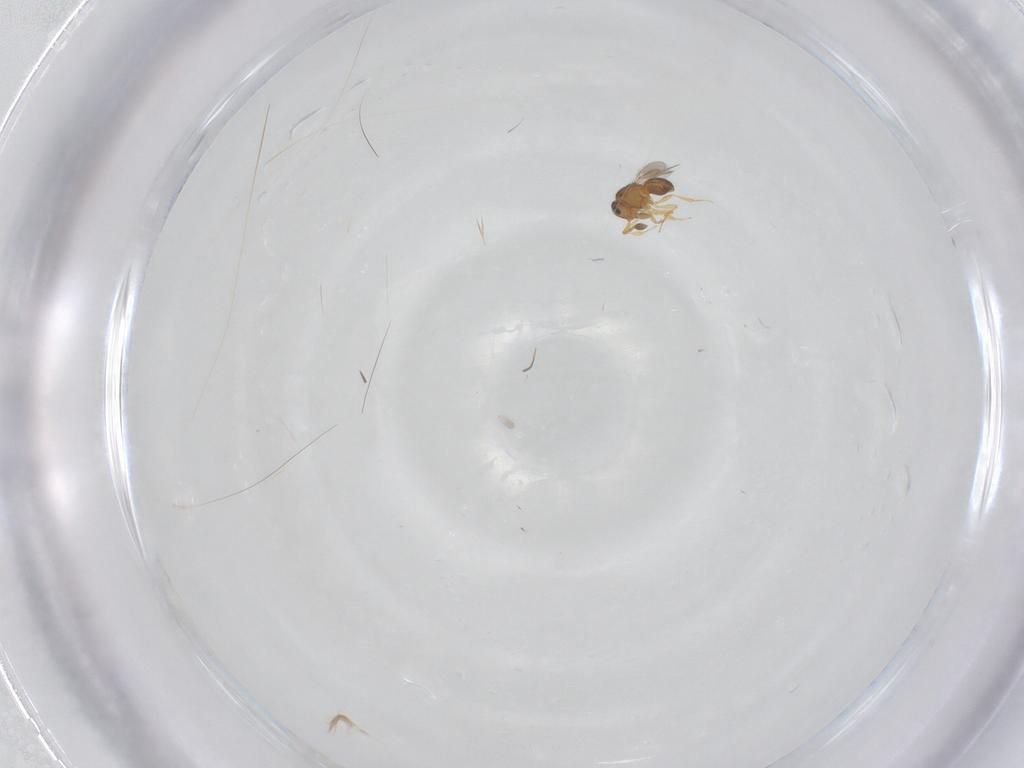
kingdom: Animalia
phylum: Arthropoda
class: Insecta
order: Hymenoptera
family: Scelionidae
